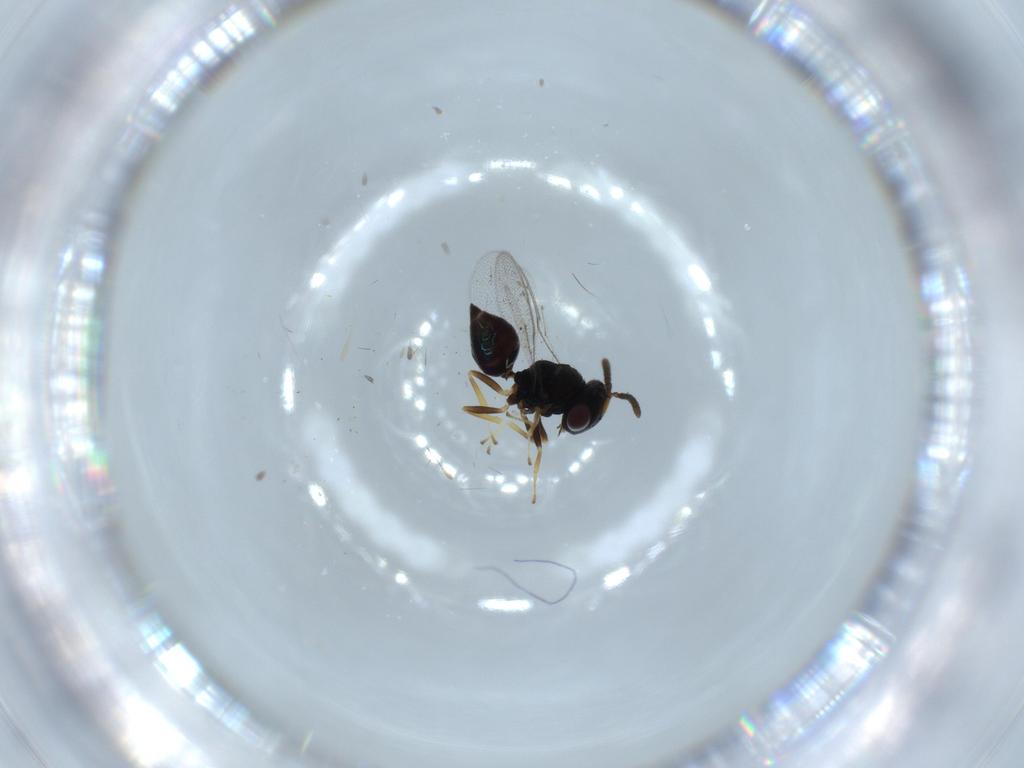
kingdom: Animalia
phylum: Arthropoda
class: Insecta
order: Hymenoptera
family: Pteromalidae
